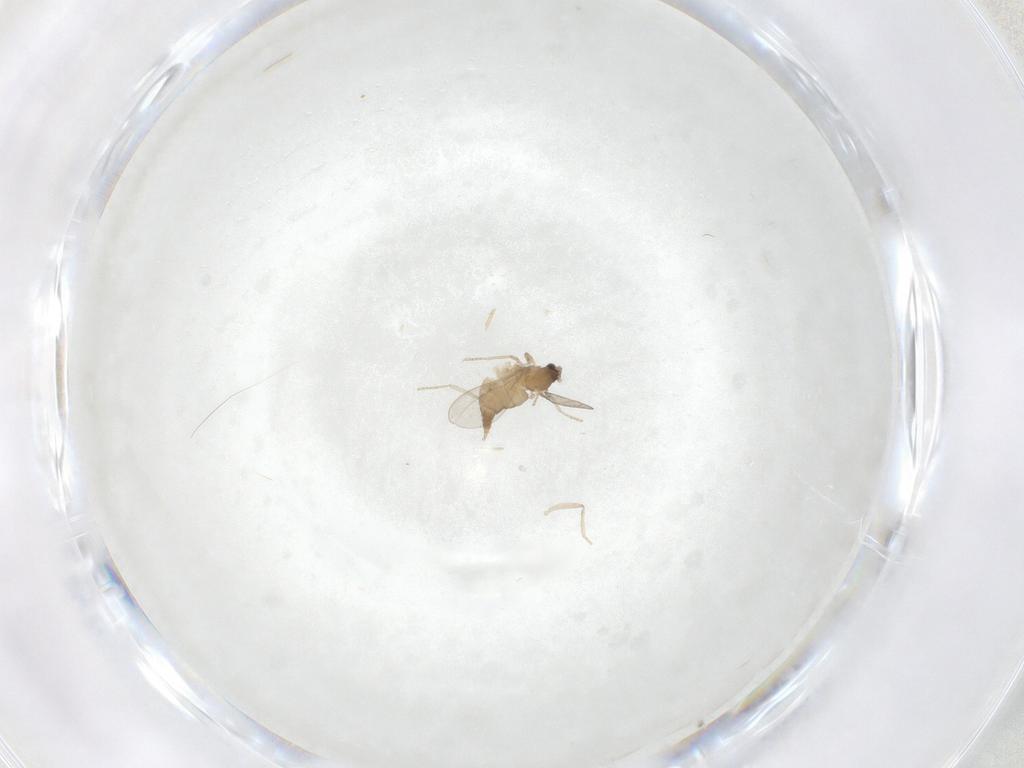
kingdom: Animalia
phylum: Arthropoda
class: Insecta
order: Diptera
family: Cecidomyiidae
